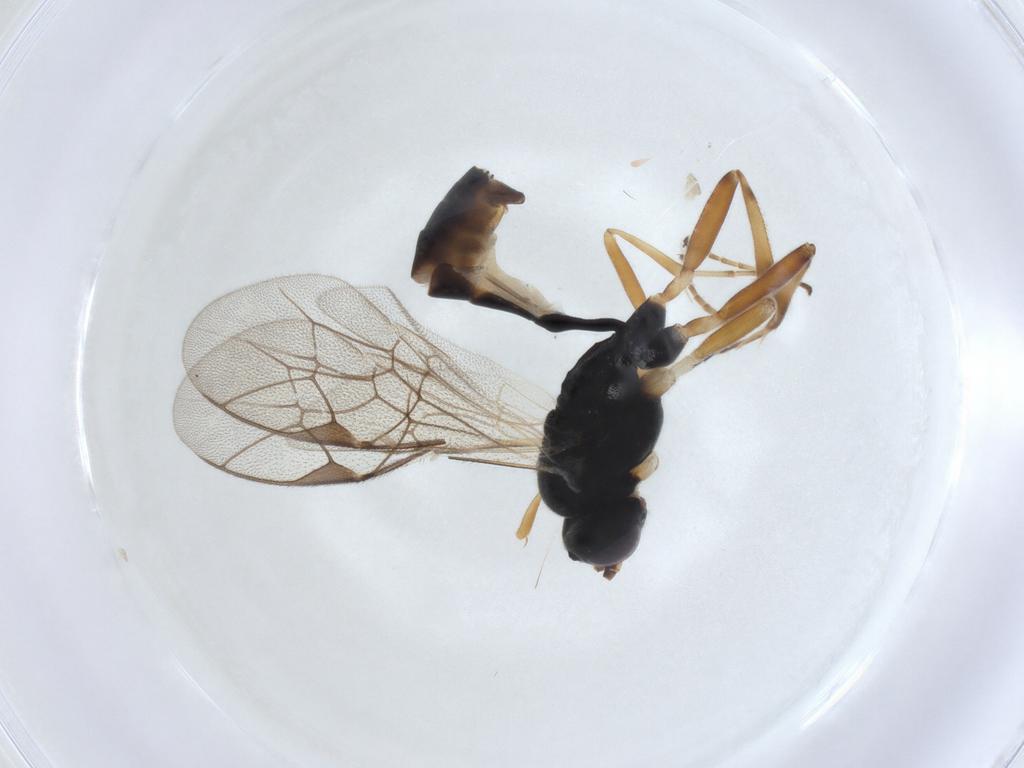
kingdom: Animalia
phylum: Arthropoda
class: Insecta
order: Hymenoptera
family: Ichneumonidae
